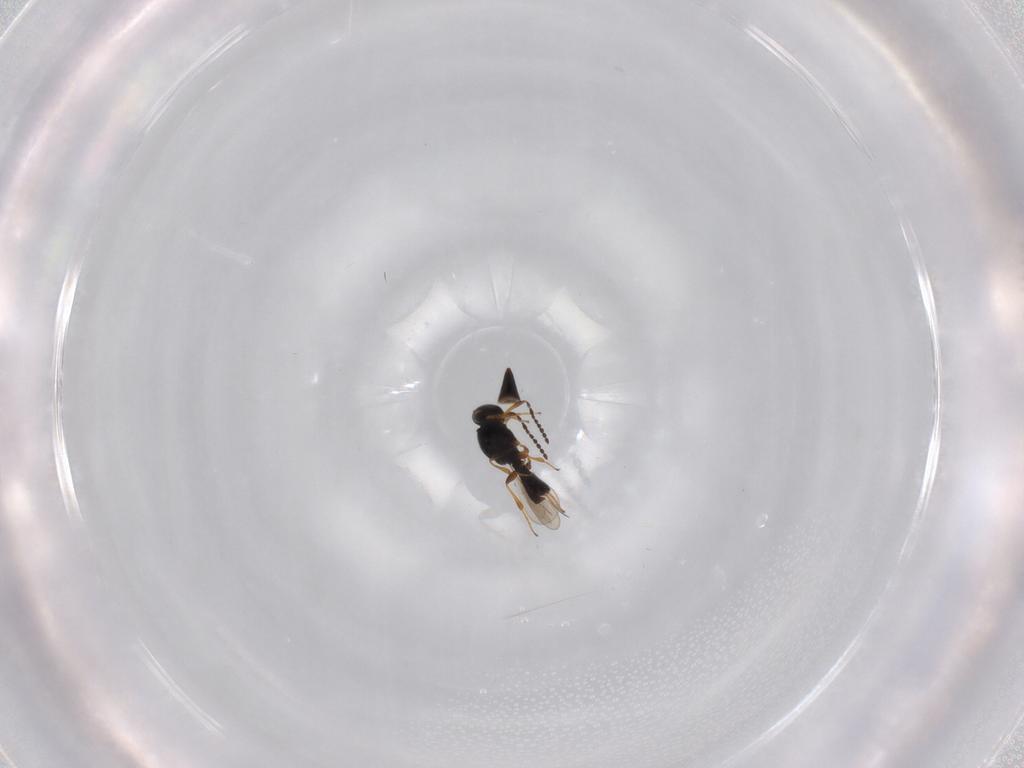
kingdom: Animalia
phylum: Arthropoda
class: Insecta
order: Hymenoptera
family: Platygastridae
